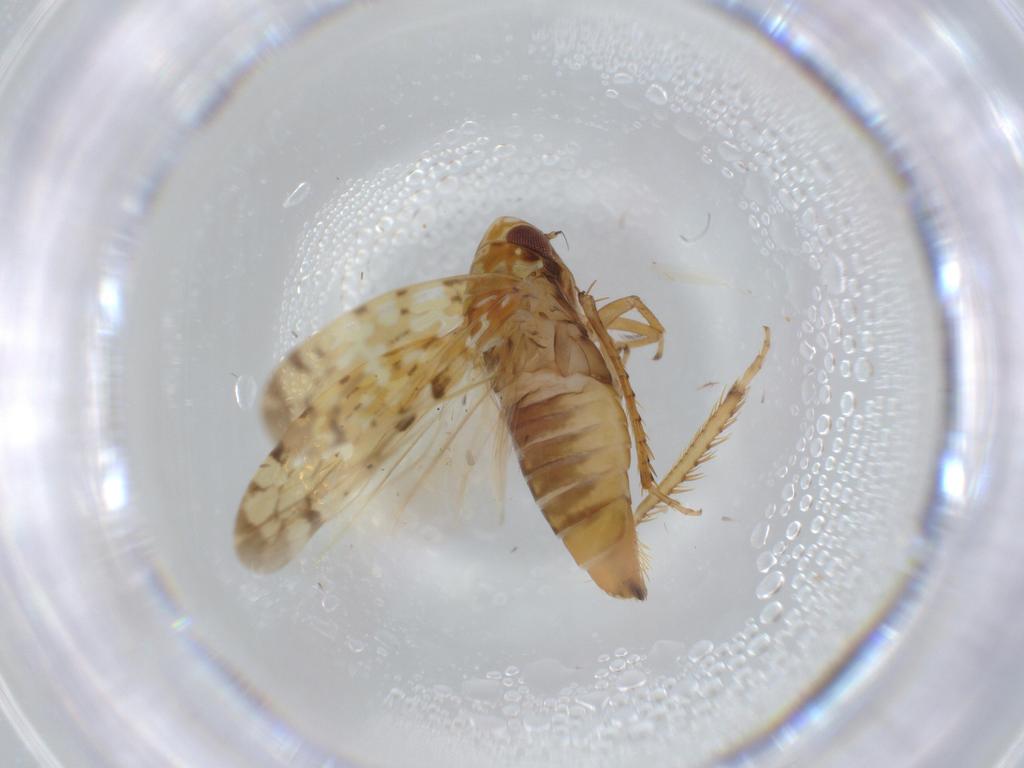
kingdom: Animalia
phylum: Arthropoda
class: Insecta
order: Hemiptera
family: Cicadellidae
